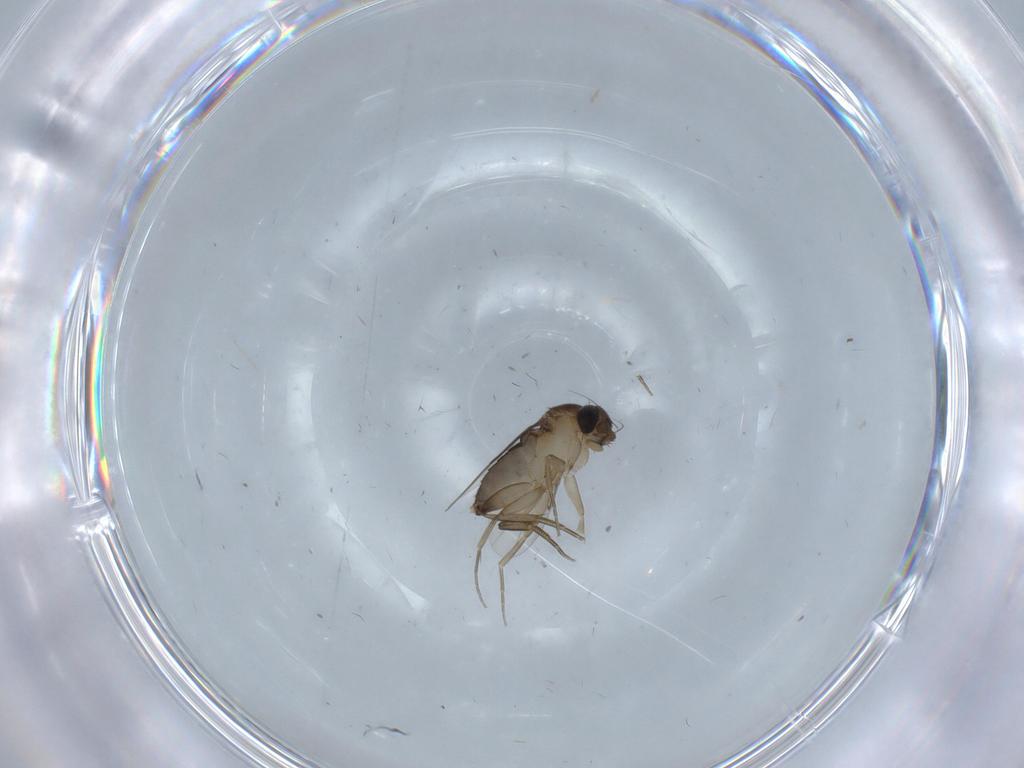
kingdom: Animalia
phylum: Arthropoda
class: Insecta
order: Diptera
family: Phoridae
